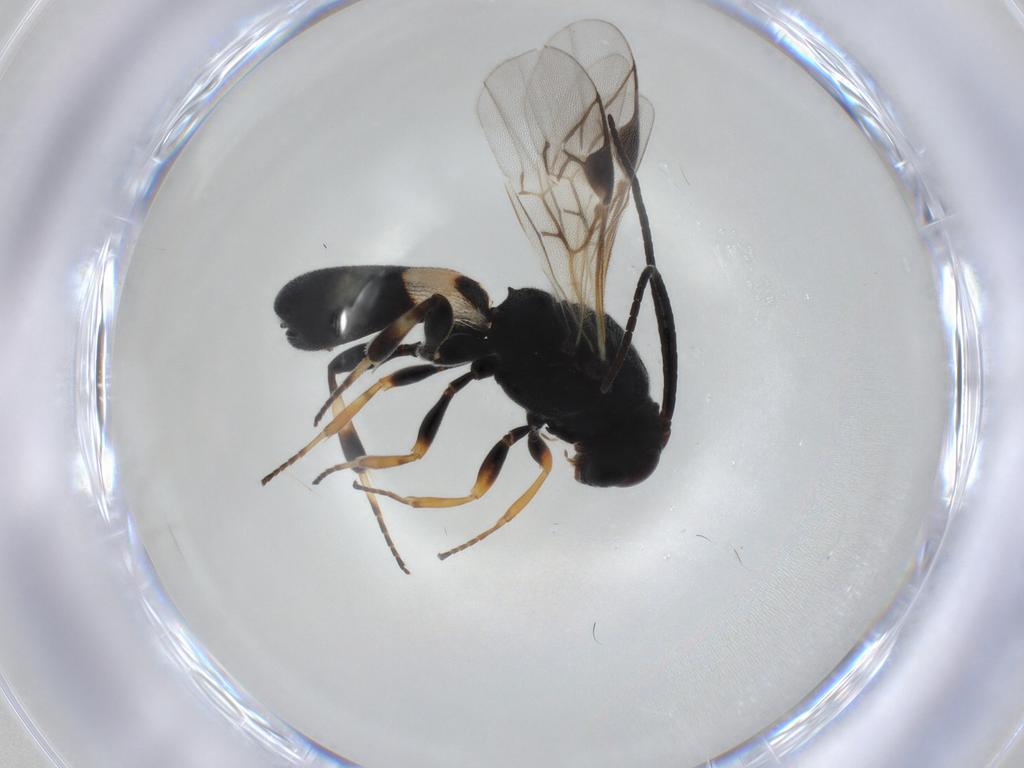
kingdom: Animalia
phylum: Arthropoda
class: Insecta
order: Hymenoptera
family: Braconidae
